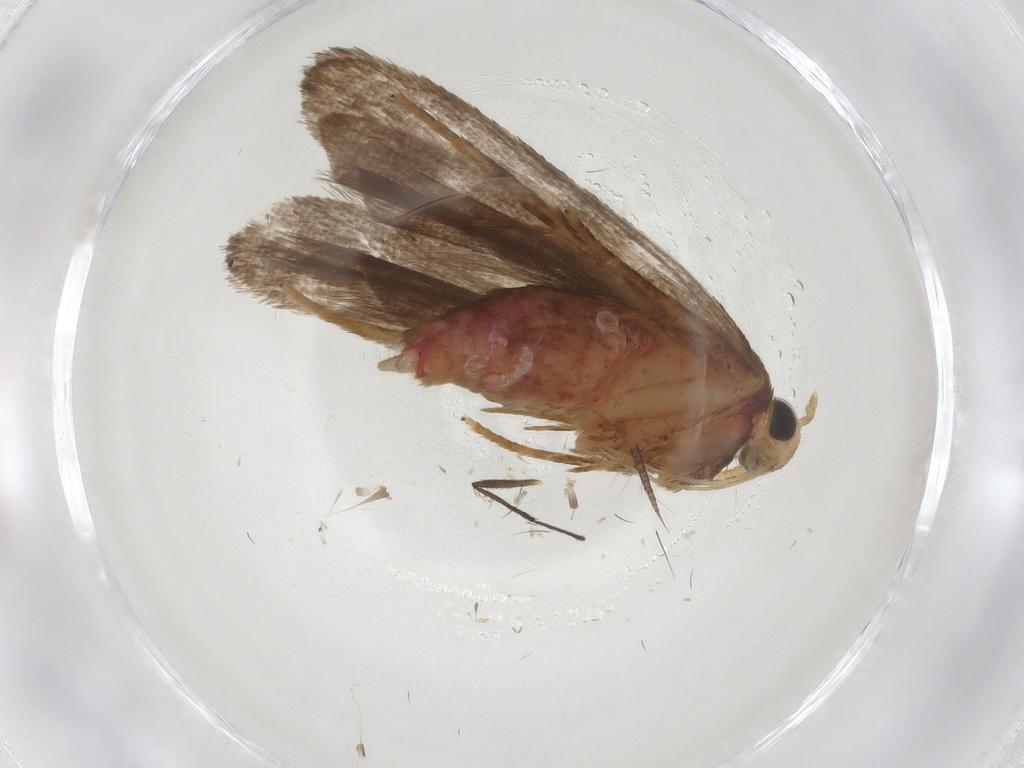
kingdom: Animalia
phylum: Arthropoda
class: Insecta
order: Lepidoptera
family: Autostichidae
